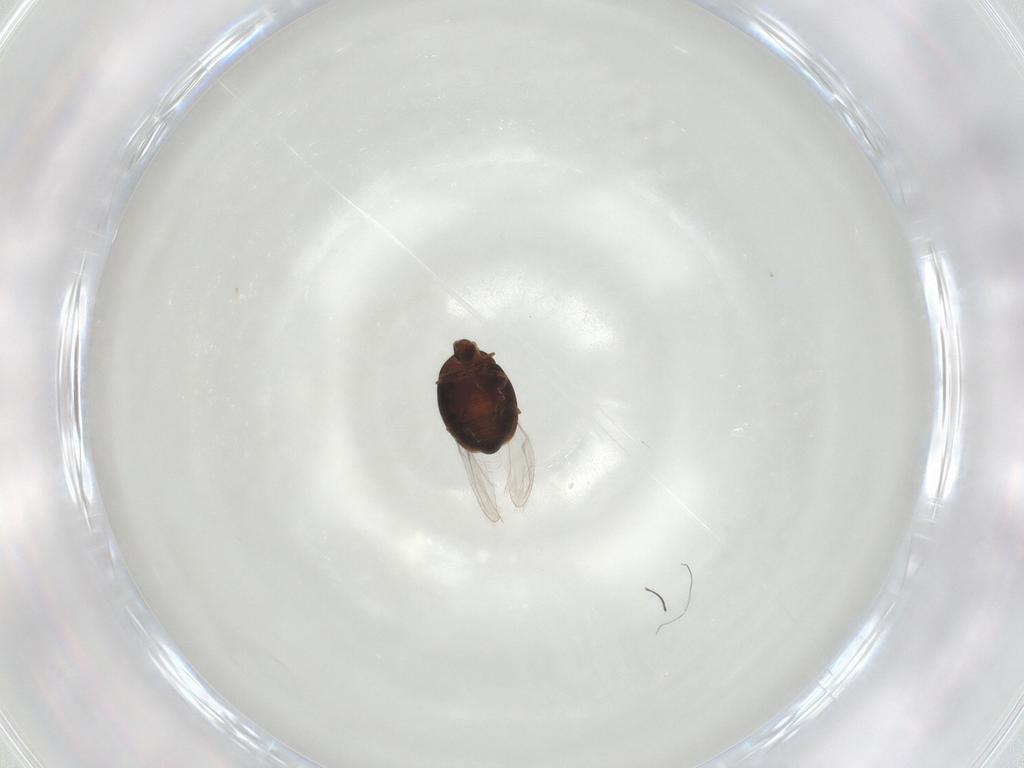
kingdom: Animalia
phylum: Arthropoda
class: Insecta
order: Coleoptera
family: Corylophidae
